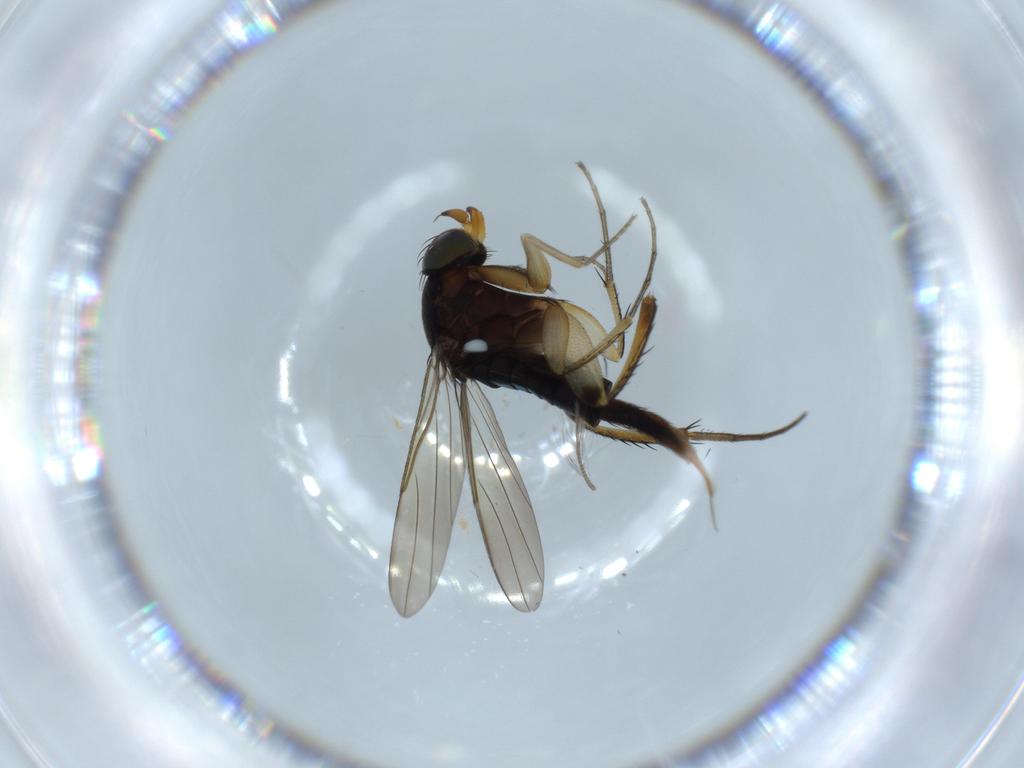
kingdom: Animalia
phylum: Arthropoda
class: Insecta
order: Diptera
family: Phoridae
